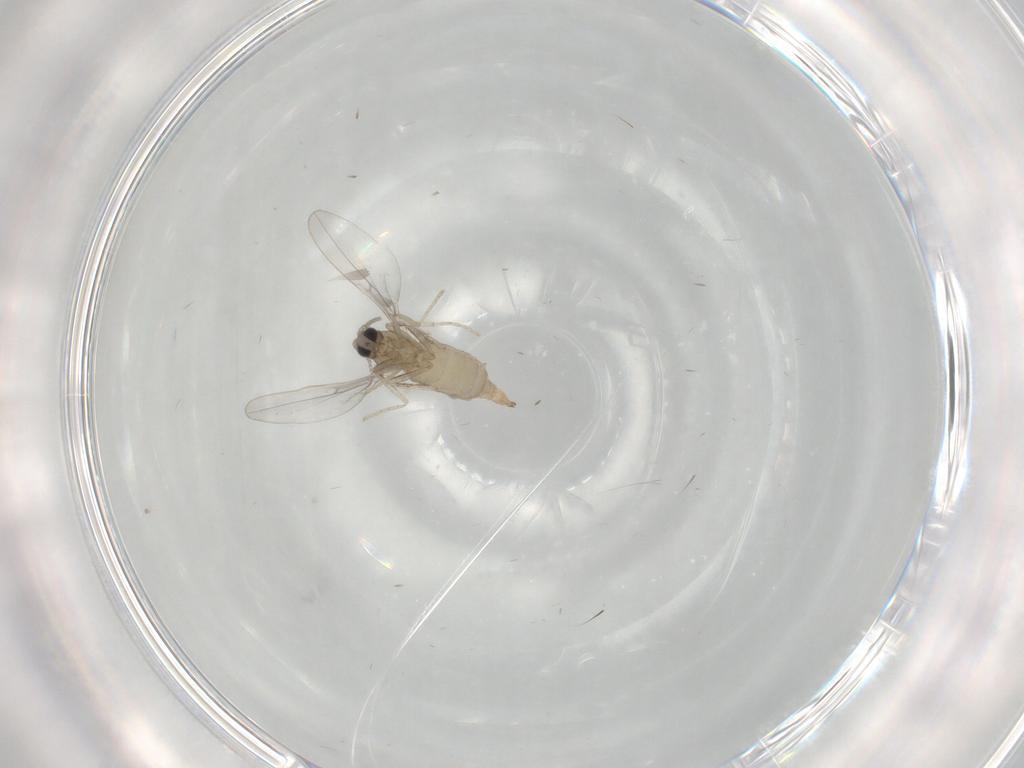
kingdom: Animalia
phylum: Arthropoda
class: Insecta
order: Diptera
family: Cecidomyiidae
